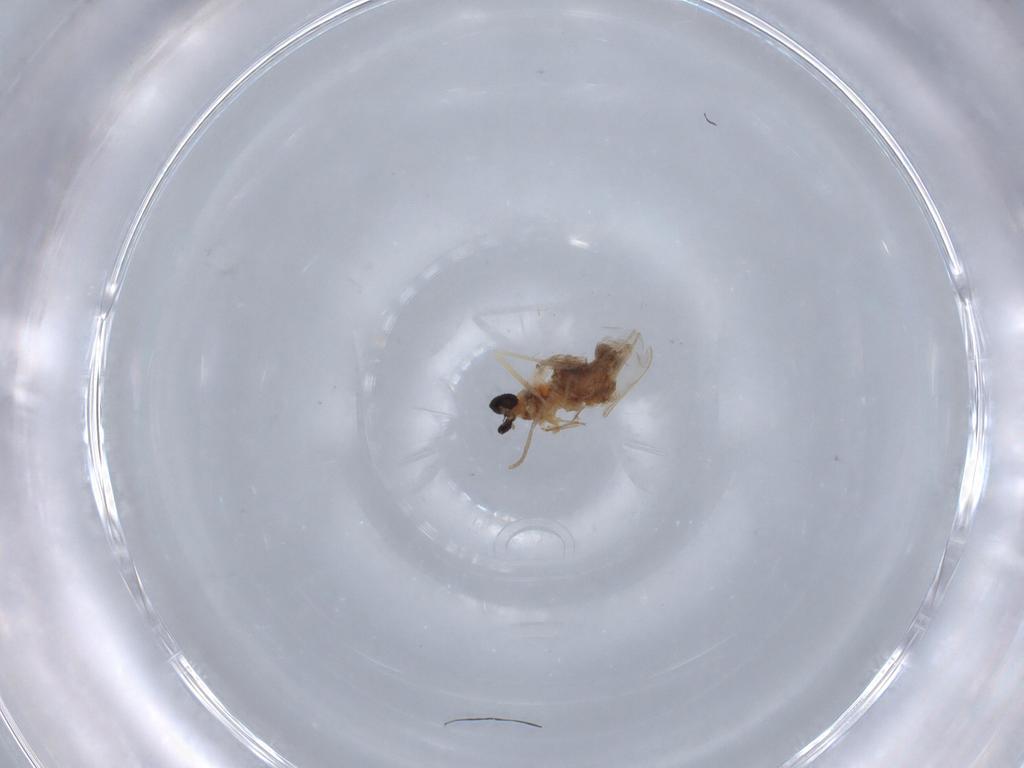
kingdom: Animalia
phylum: Arthropoda
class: Insecta
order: Diptera
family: Cecidomyiidae
